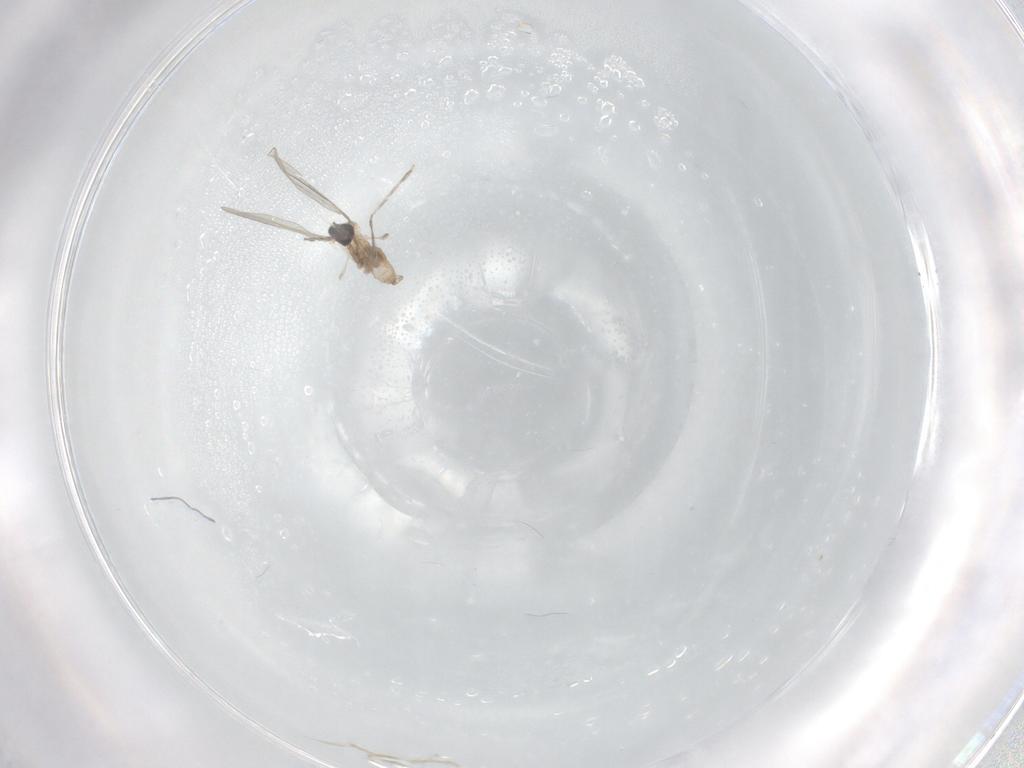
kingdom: Animalia
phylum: Arthropoda
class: Insecta
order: Diptera
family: Cecidomyiidae
